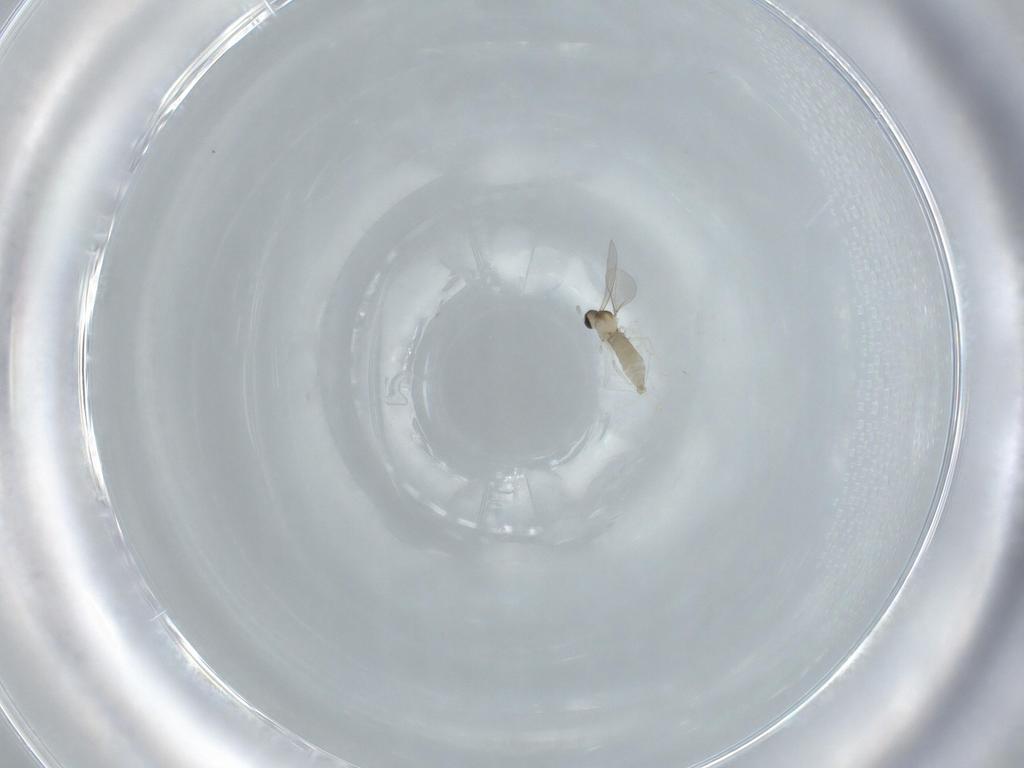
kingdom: Animalia
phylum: Arthropoda
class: Insecta
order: Diptera
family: Cecidomyiidae
